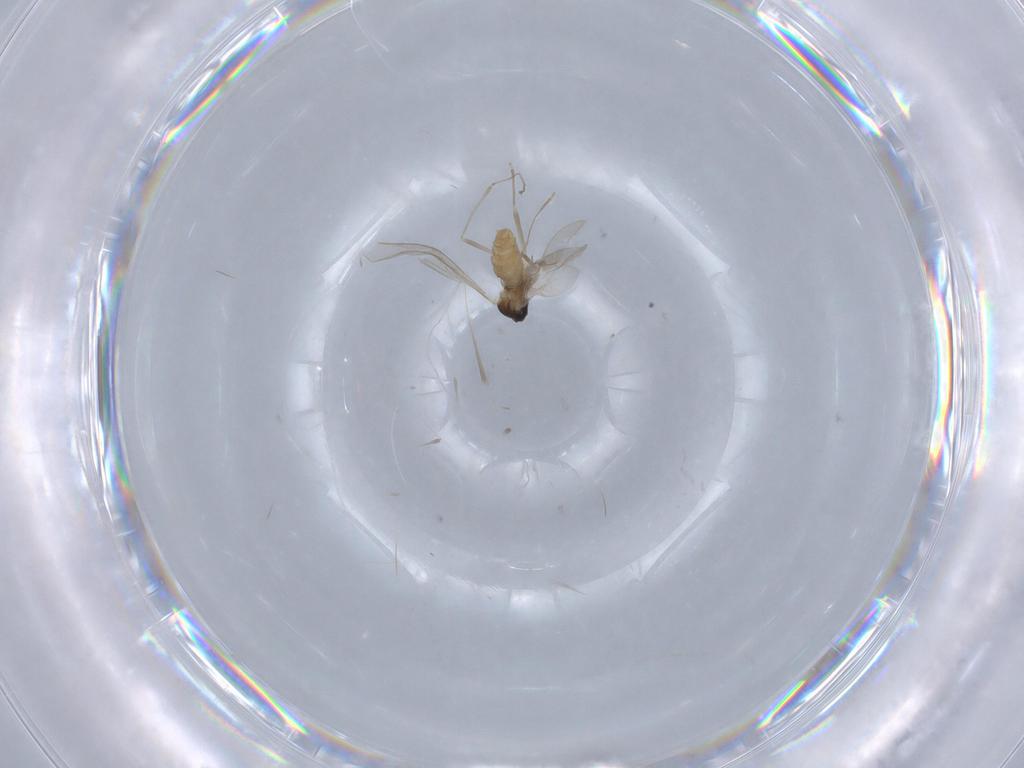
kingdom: Animalia
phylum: Arthropoda
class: Insecta
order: Diptera
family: Cecidomyiidae
